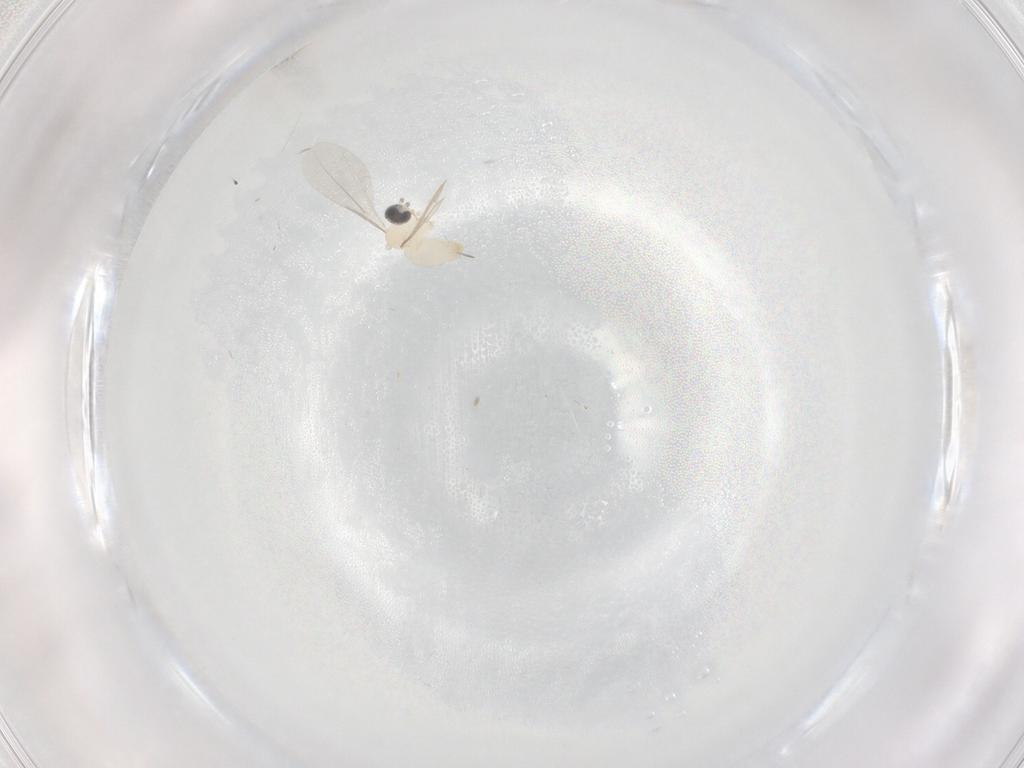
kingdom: Animalia
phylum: Arthropoda
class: Insecta
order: Diptera
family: Cecidomyiidae
